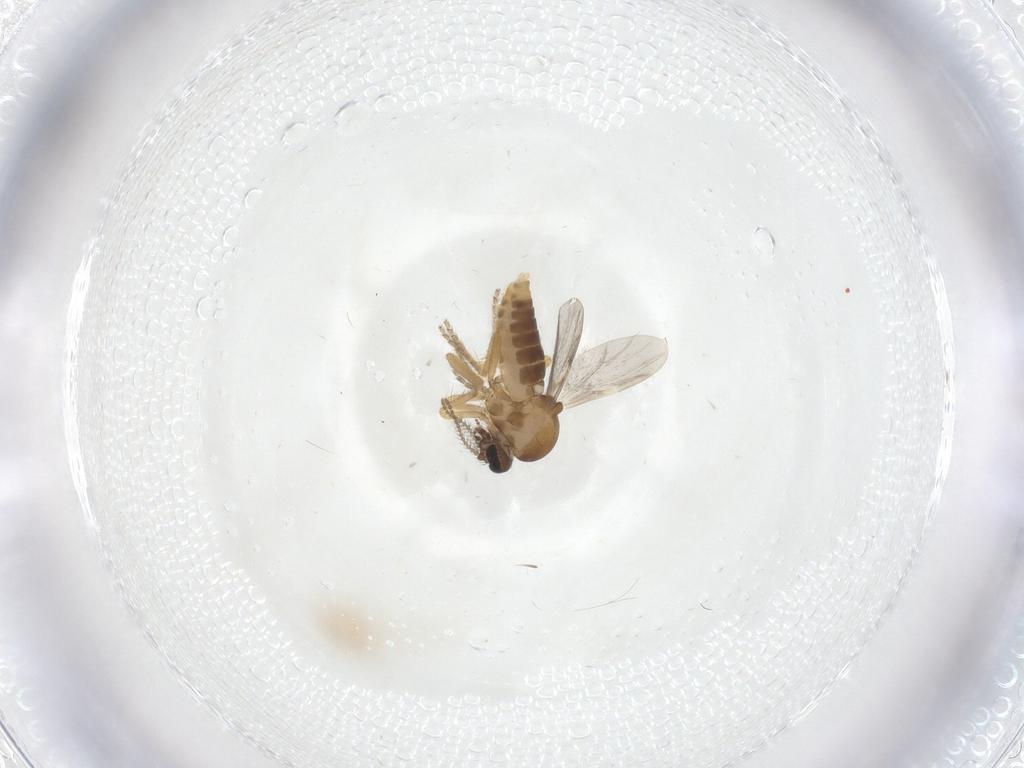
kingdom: Animalia
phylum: Arthropoda
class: Insecta
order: Diptera
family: Ceratopogonidae
